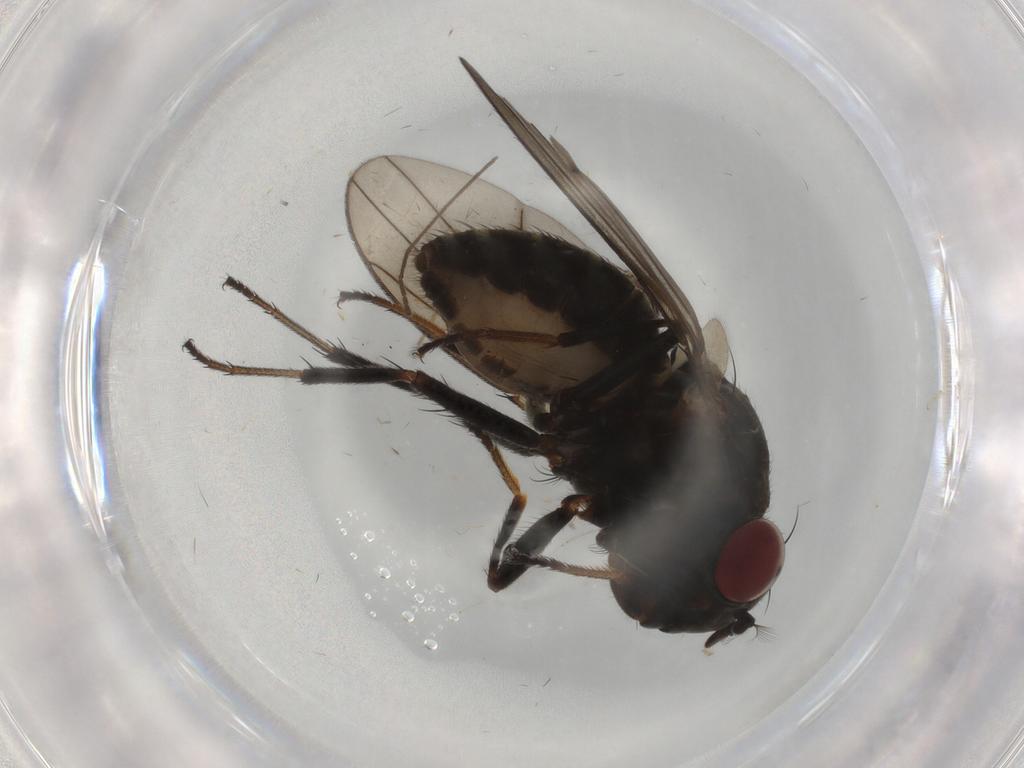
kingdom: Animalia
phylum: Arthropoda
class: Insecta
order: Diptera
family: Ephydridae
